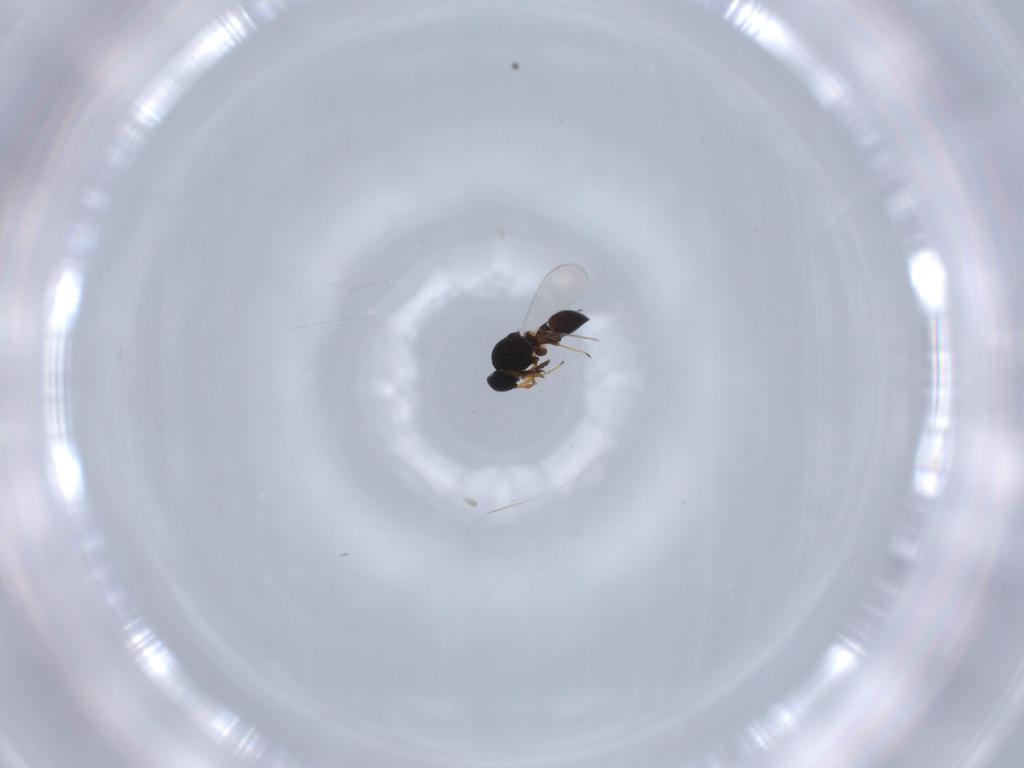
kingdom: Animalia
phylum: Arthropoda
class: Insecta
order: Hymenoptera
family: Platygastridae
